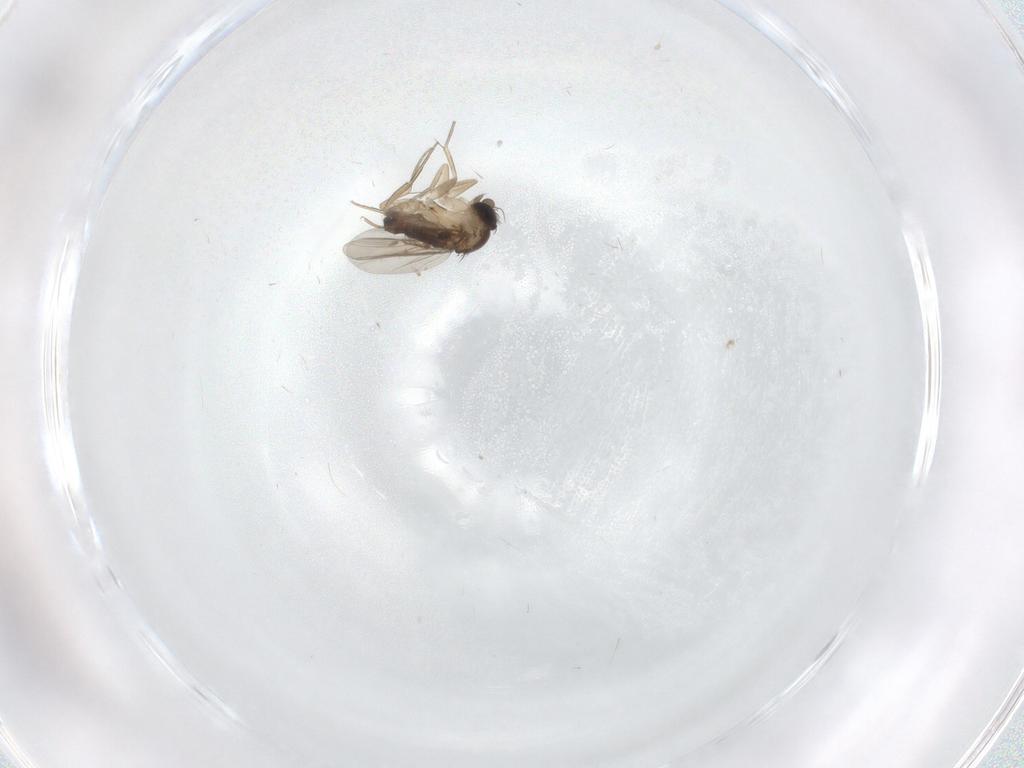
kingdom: Animalia
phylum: Arthropoda
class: Insecta
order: Diptera
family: Phoridae
